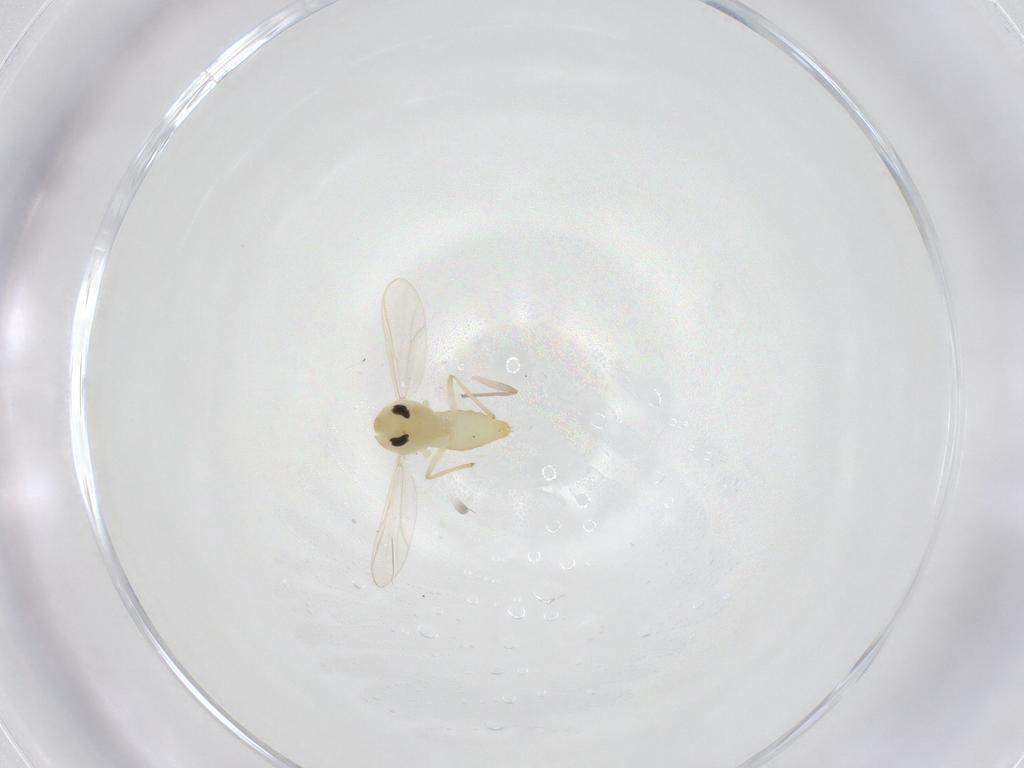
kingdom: Animalia
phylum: Arthropoda
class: Insecta
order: Diptera
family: Chironomidae
